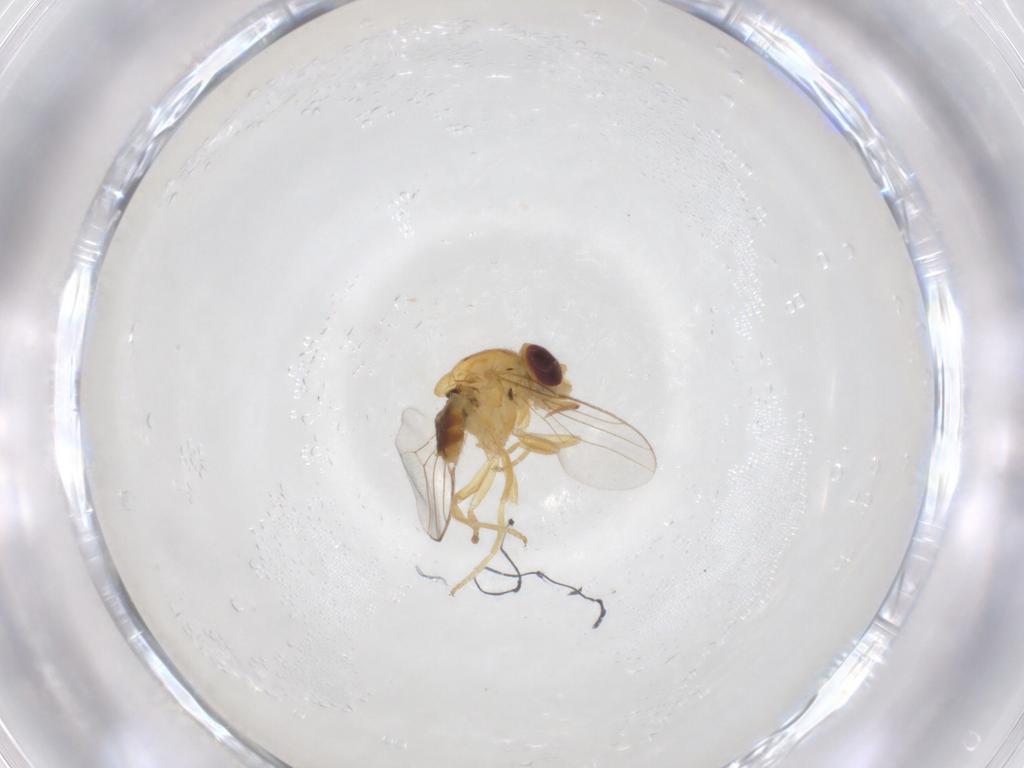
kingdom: Animalia
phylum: Arthropoda
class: Insecta
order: Diptera
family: Chloropidae
